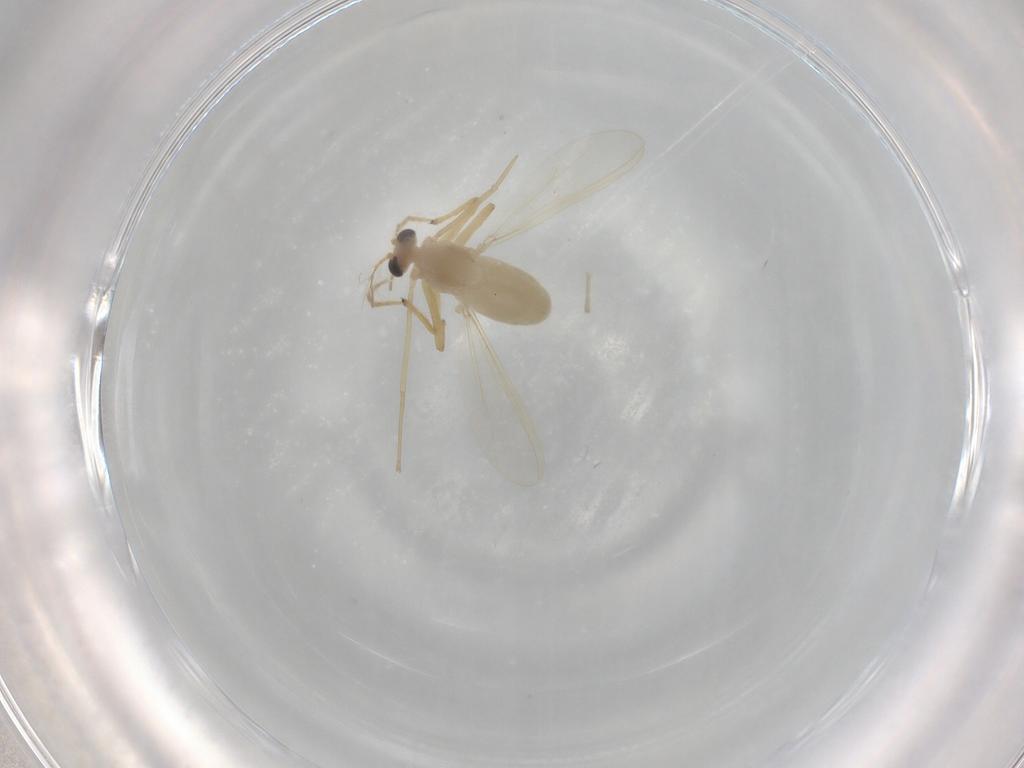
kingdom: Animalia
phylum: Arthropoda
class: Insecta
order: Diptera
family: Chironomidae
